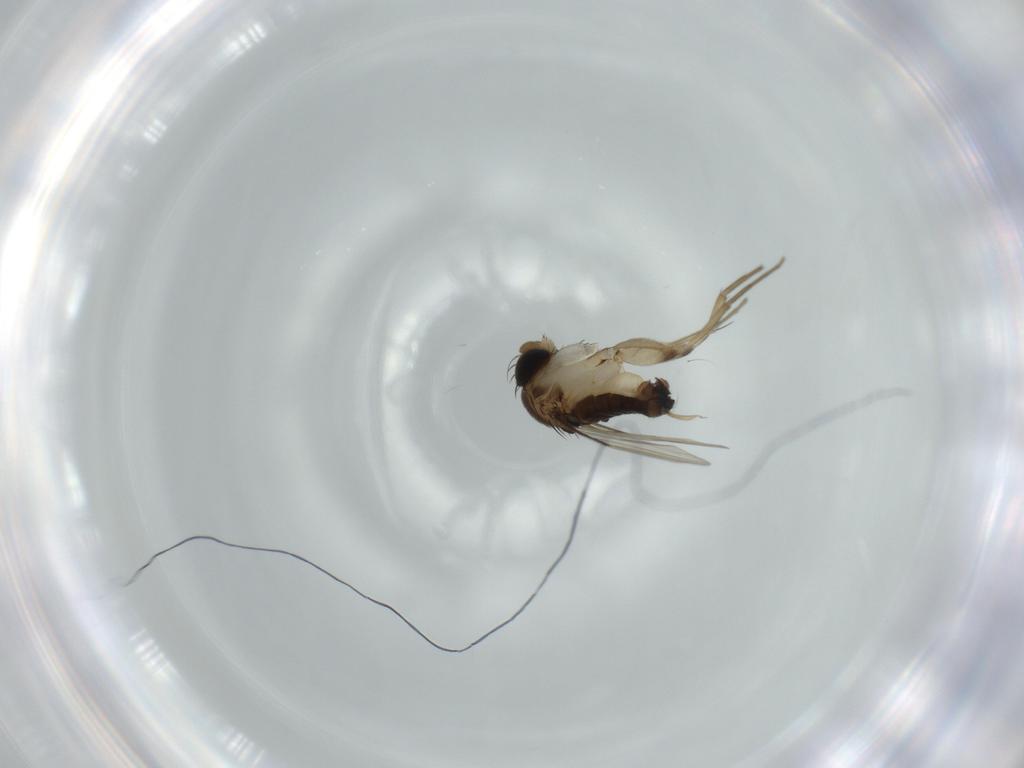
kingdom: Animalia
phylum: Arthropoda
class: Insecta
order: Diptera
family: Phoridae
